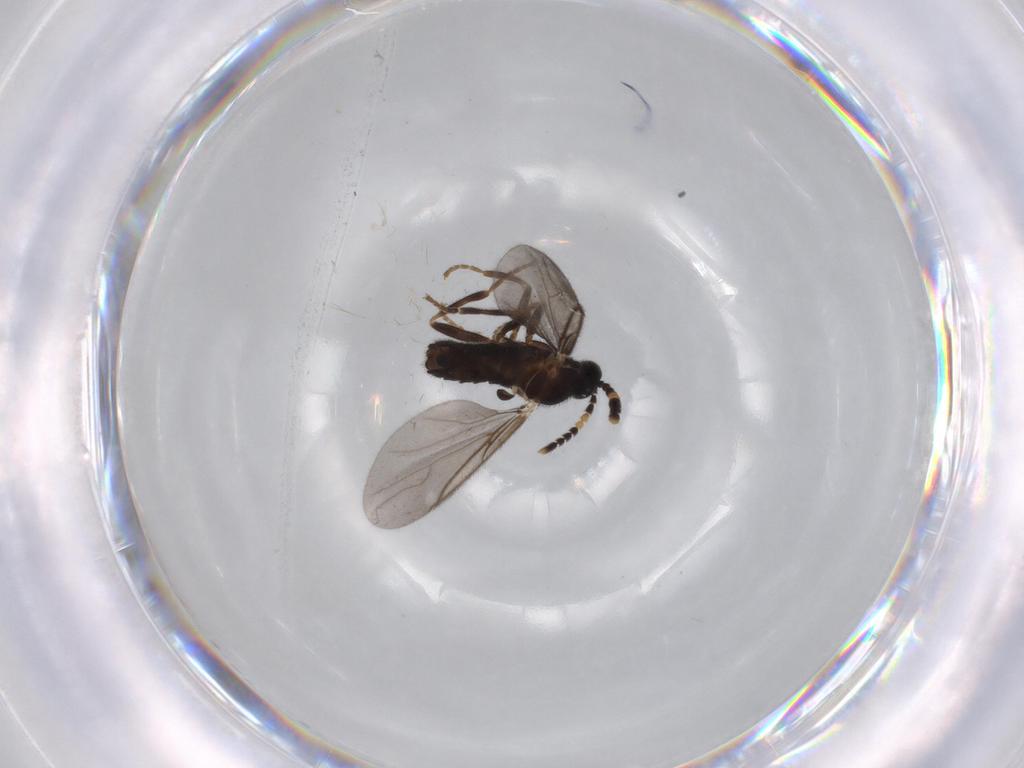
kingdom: Animalia
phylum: Arthropoda
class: Insecta
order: Diptera
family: Scatopsidae
